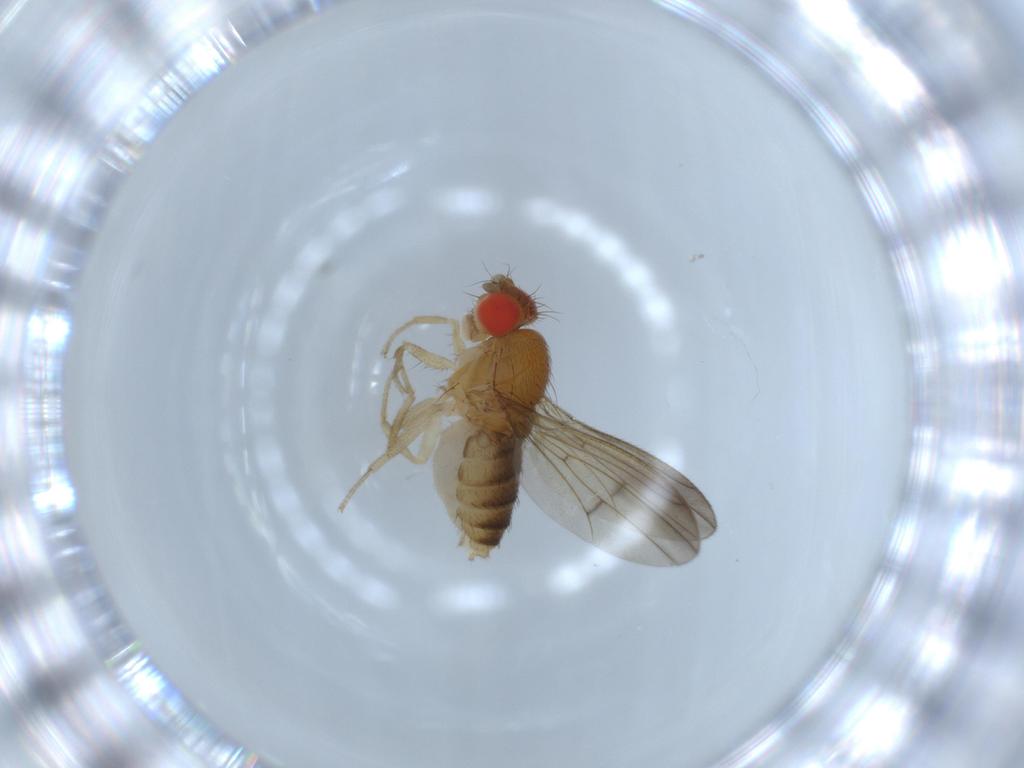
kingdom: Animalia
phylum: Arthropoda
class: Insecta
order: Diptera
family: Drosophilidae
